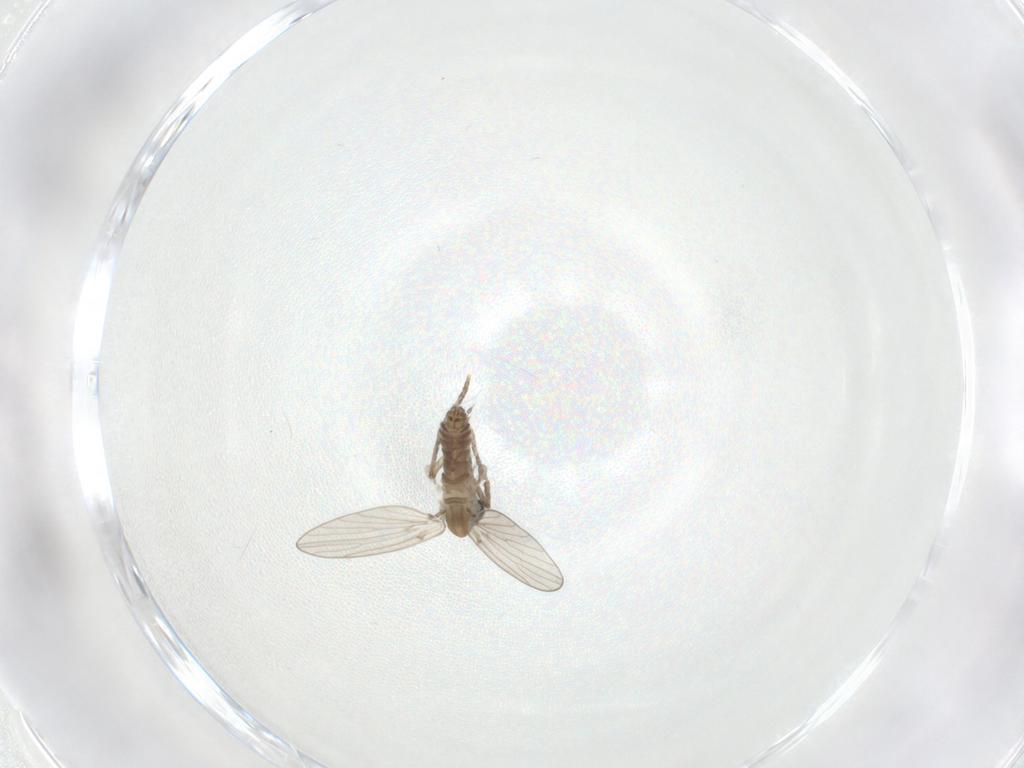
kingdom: Animalia
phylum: Arthropoda
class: Insecta
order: Diptera
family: Psychodidae
